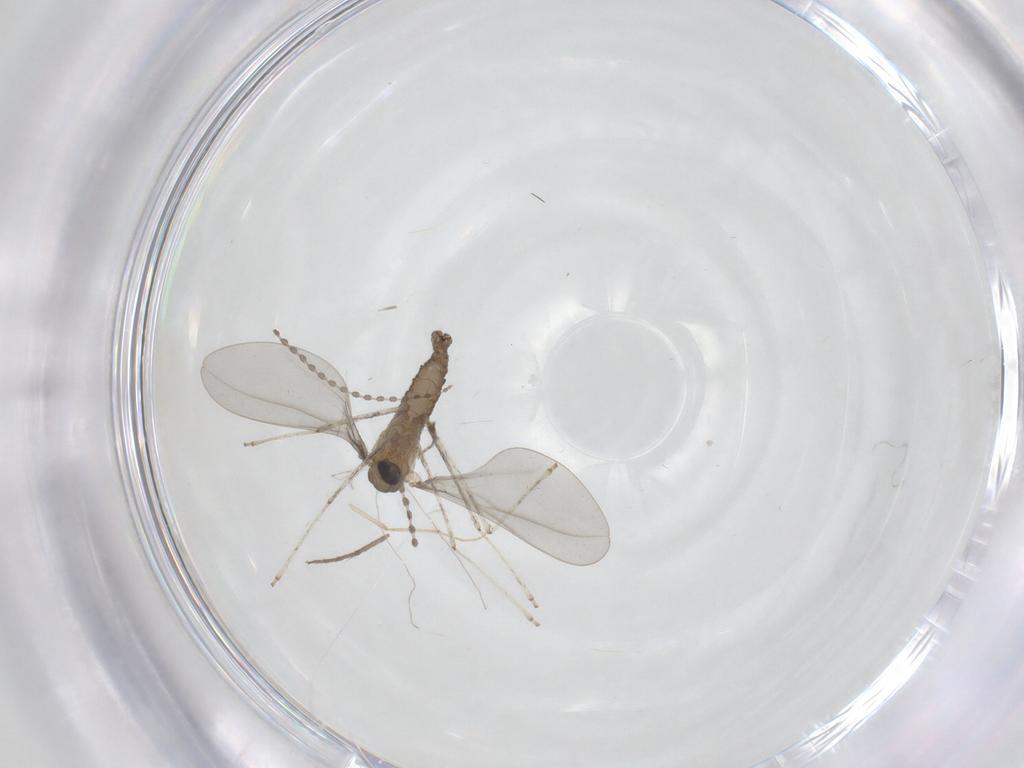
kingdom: Animalia
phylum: Arthropoda
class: Insecta
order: Diptera
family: Cecidomyiidae
